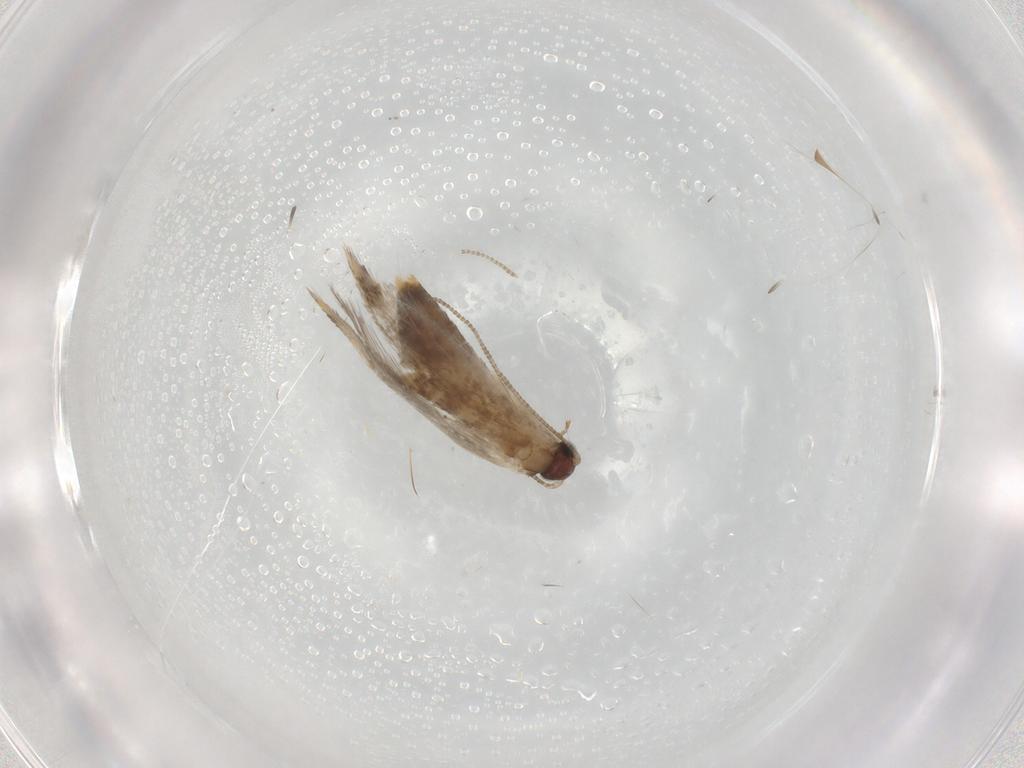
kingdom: Animalia
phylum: Arthropoda
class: Insecta
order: Lepidoptera
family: Tineidae
